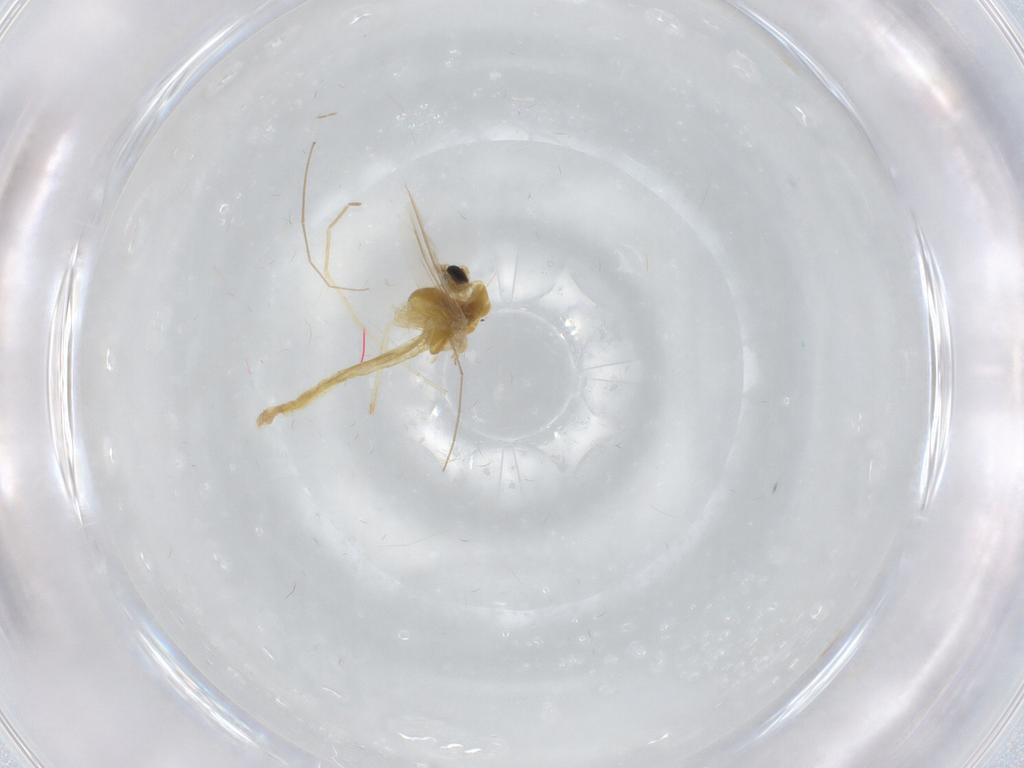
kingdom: Animalia
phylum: Arthropoda
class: Insecta
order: Diptera
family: Chironomidae
